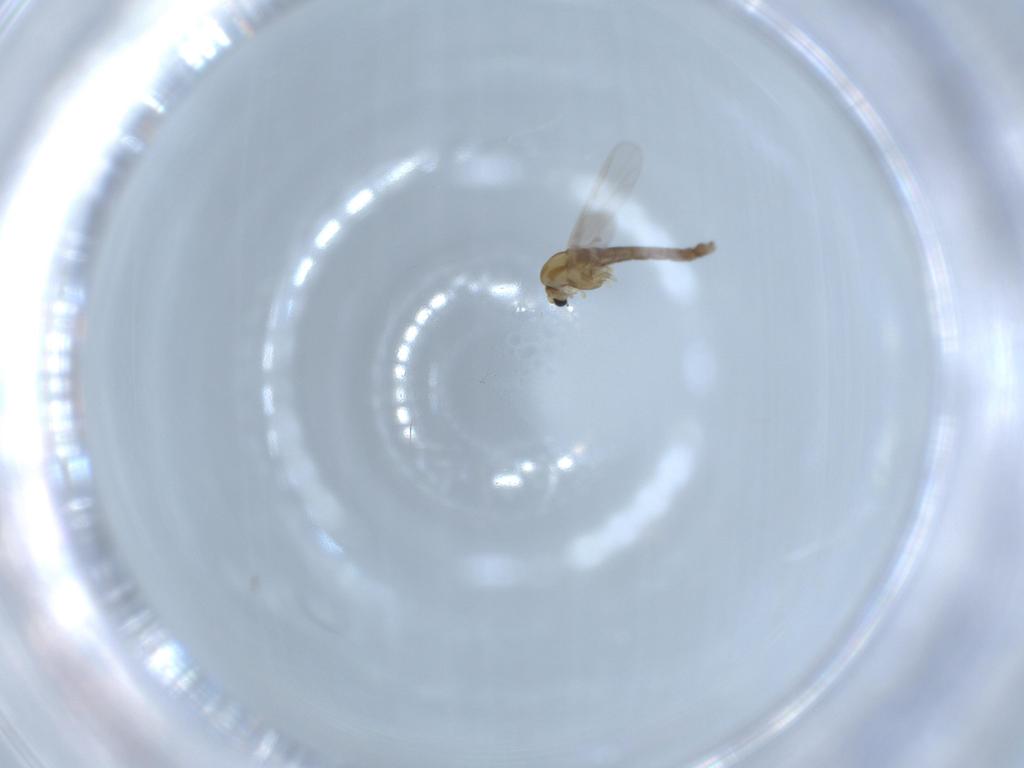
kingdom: Animalia
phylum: Arthropoda
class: Insecta
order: Diptera
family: Chironomidae
